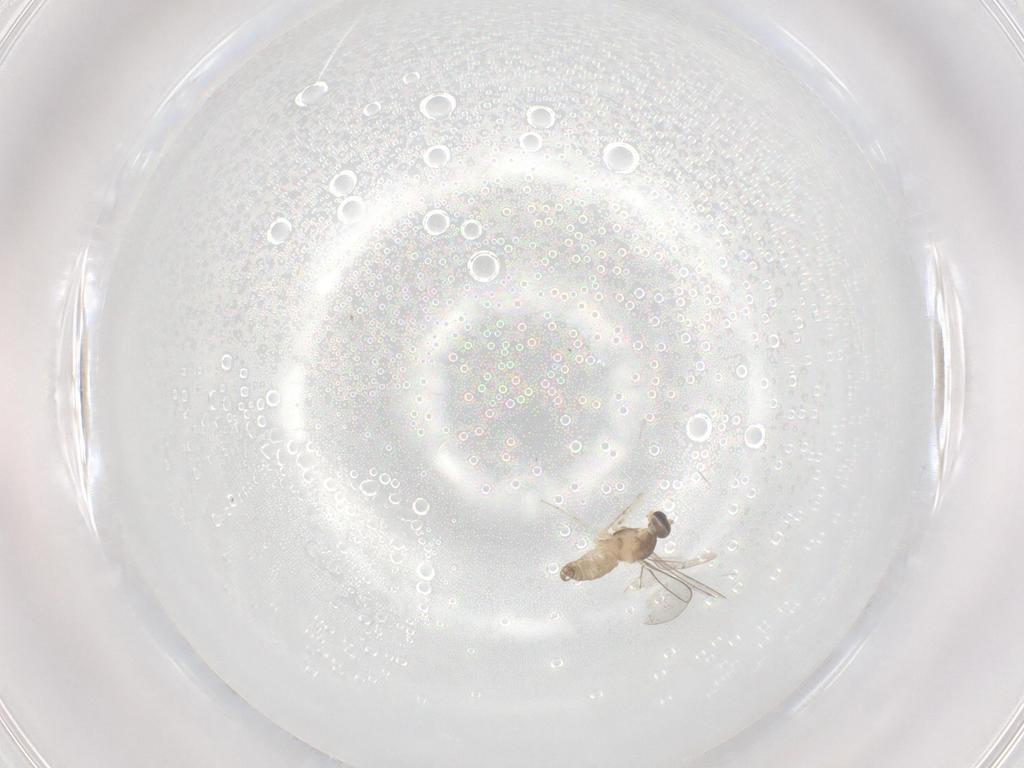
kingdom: Animalia
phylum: Arthropoda
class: Insecta
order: Diptera
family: Cecidomyiidae
